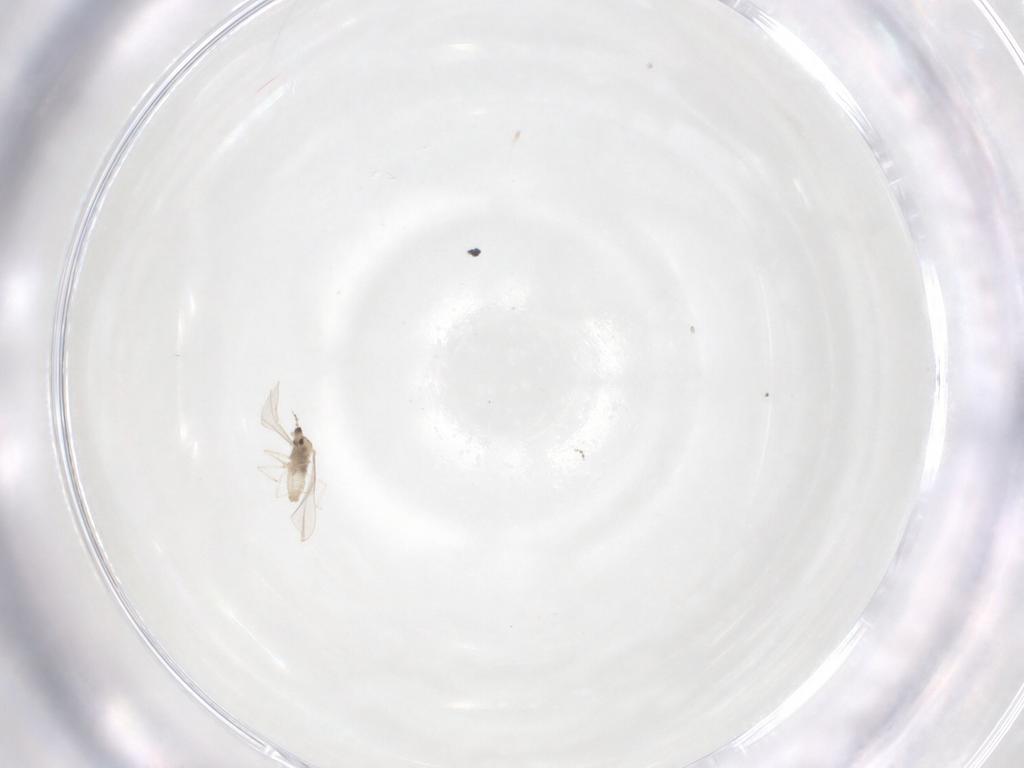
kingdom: Animalia
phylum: Arthropoda
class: Insecta
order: Diptera
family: Cecidomyiidae
